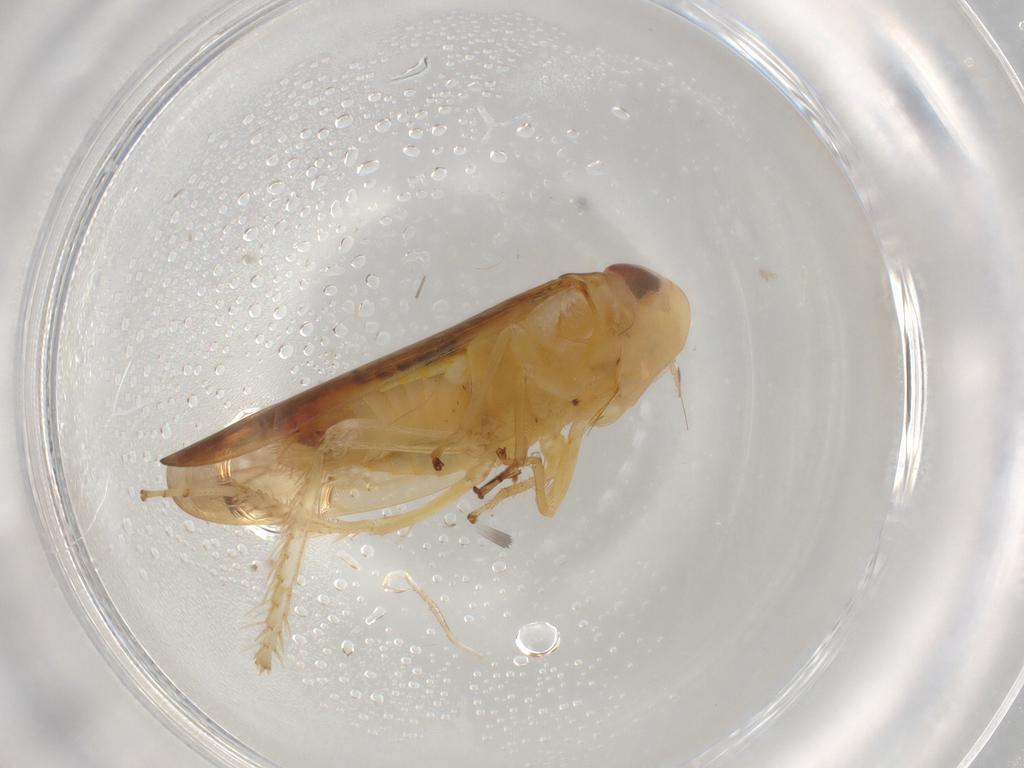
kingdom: Animalia
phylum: Arthropoda
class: Insecta
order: Hemiptera
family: Cicadellidae
